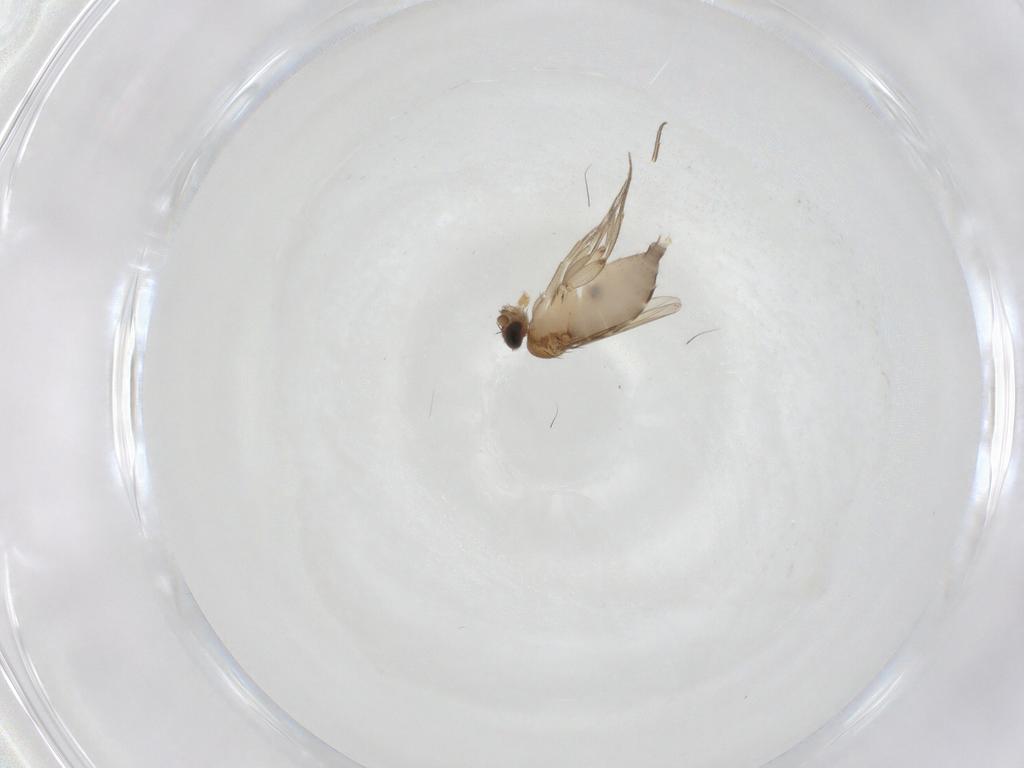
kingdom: Animalia
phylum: Arthropoda
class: Insecta
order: Diptera
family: Phoridae
